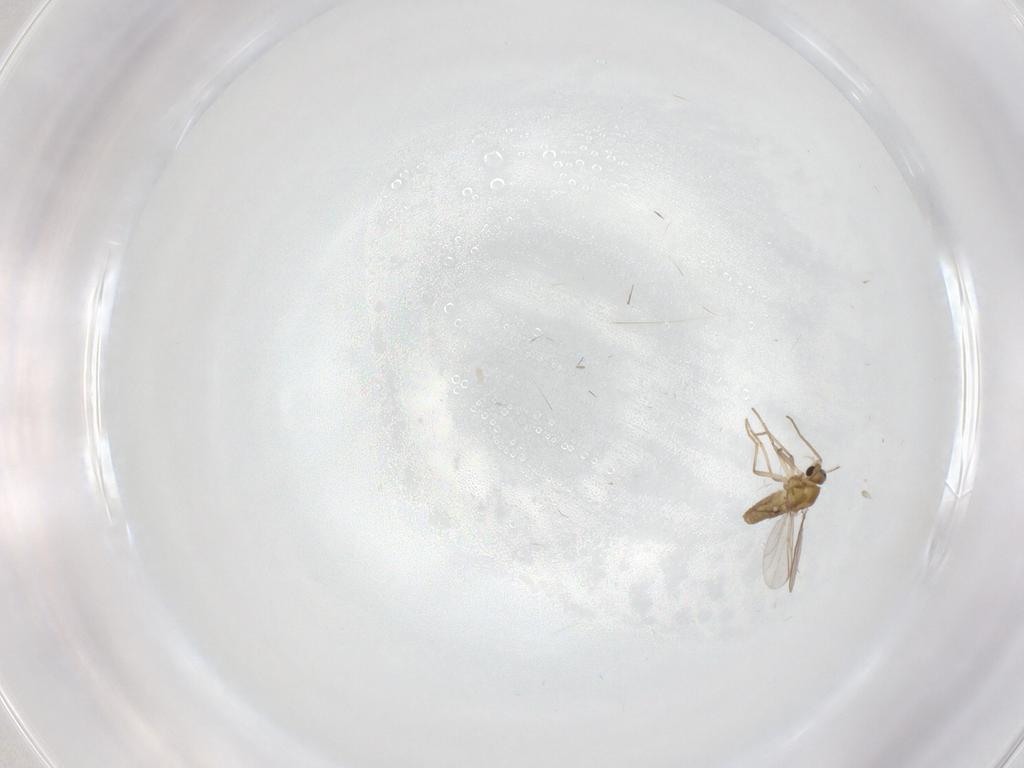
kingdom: Animalia
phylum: Arthropoda
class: Insecta
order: Diptera
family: Chironomidae
